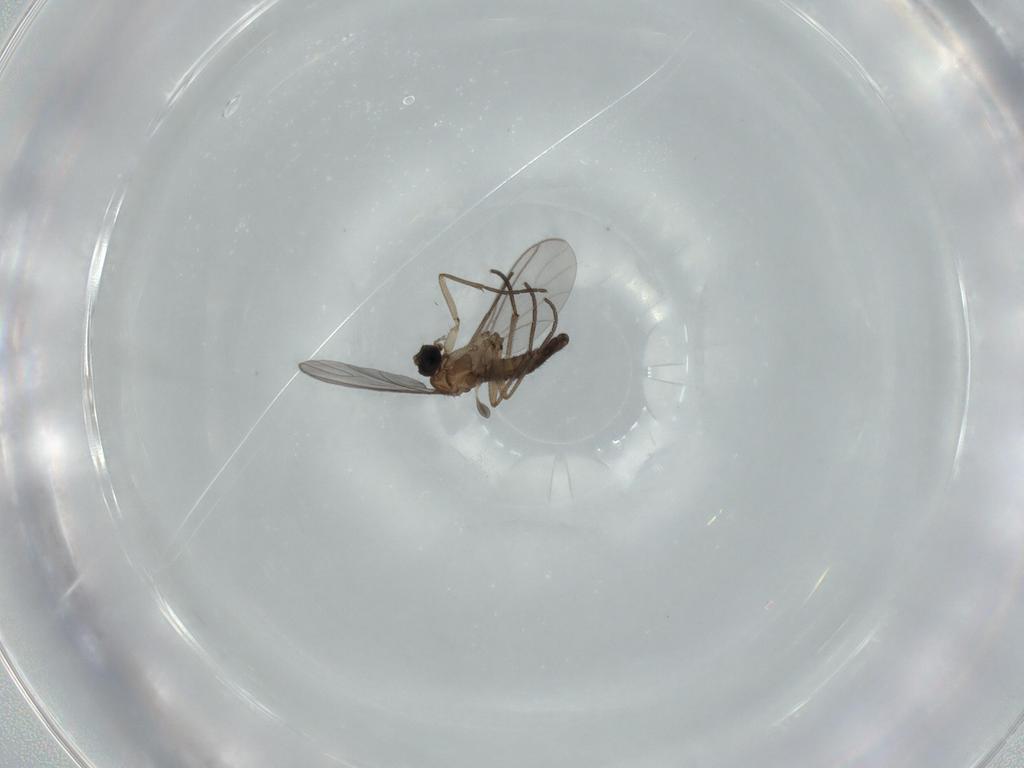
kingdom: Animalia
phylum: Arthropoda
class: Insecta
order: Diptera
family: Sciaridae
